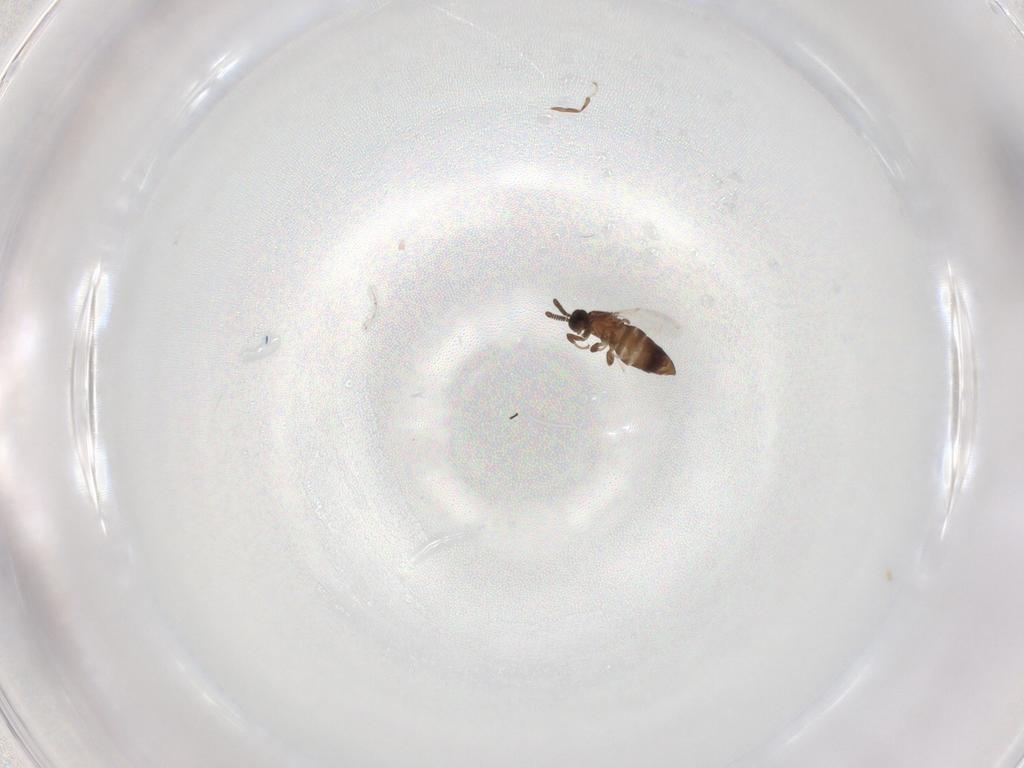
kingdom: Animalia
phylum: Arthropoda
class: Insecta
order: Diptera
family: Scatopsidae
